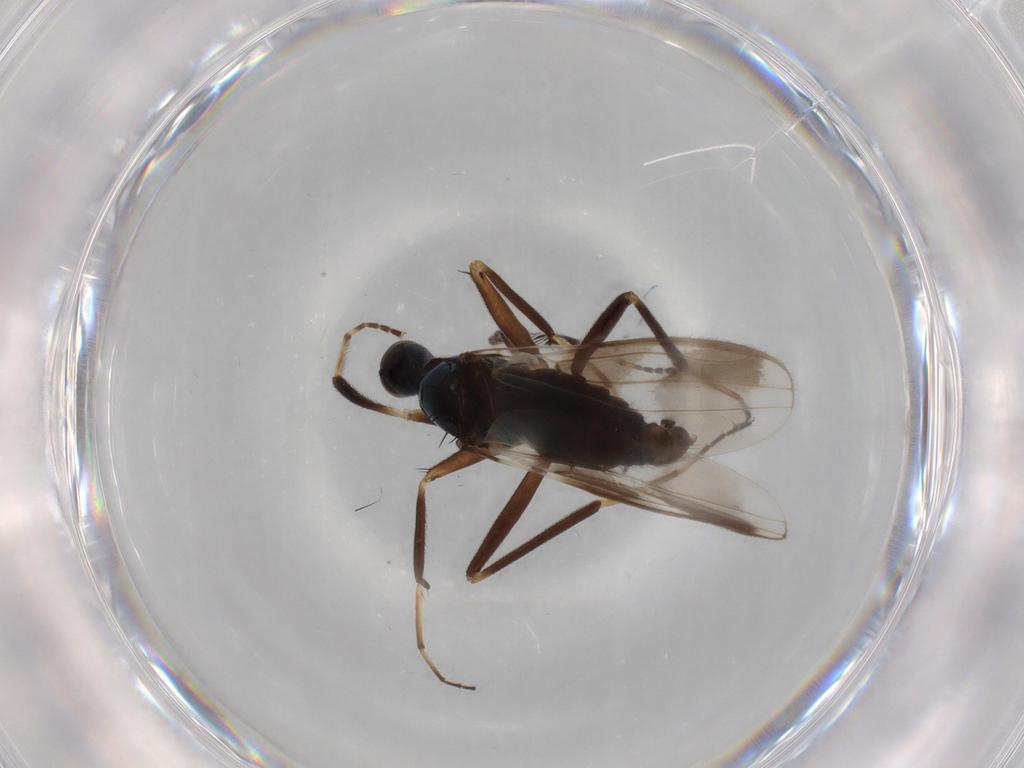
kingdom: Animalia
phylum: Arthropoda
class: Insecta
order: Diptera
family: Hybotidae
